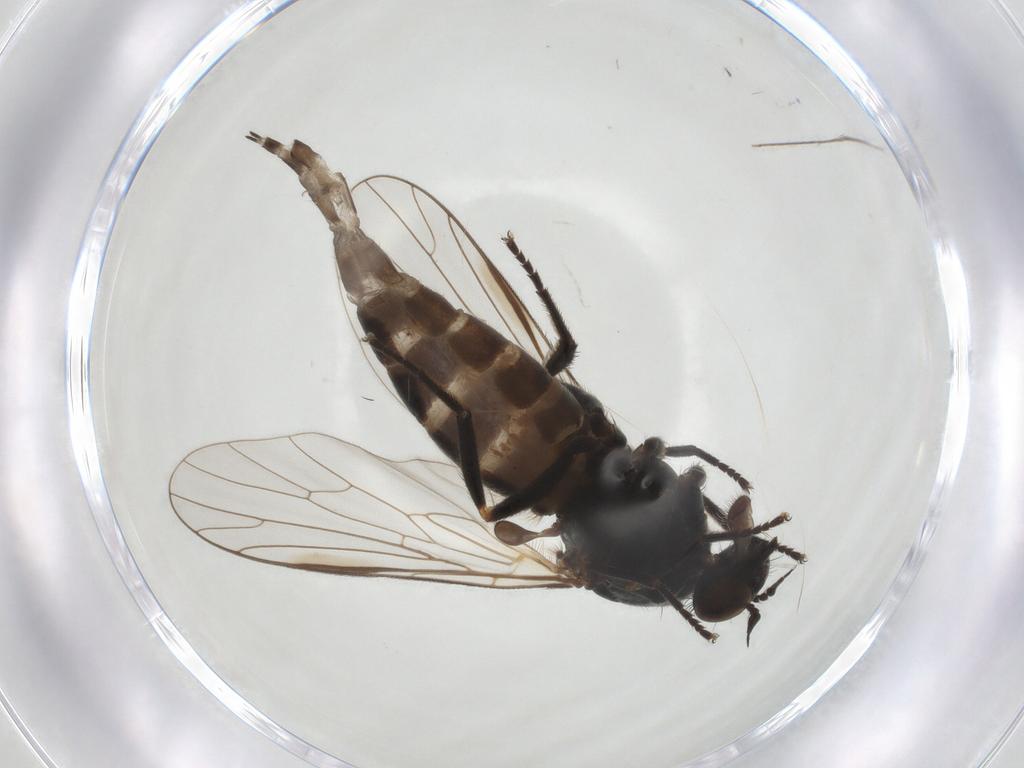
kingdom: Animalia
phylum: Arthropoda
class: Insecta
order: Diptera
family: Empididae
